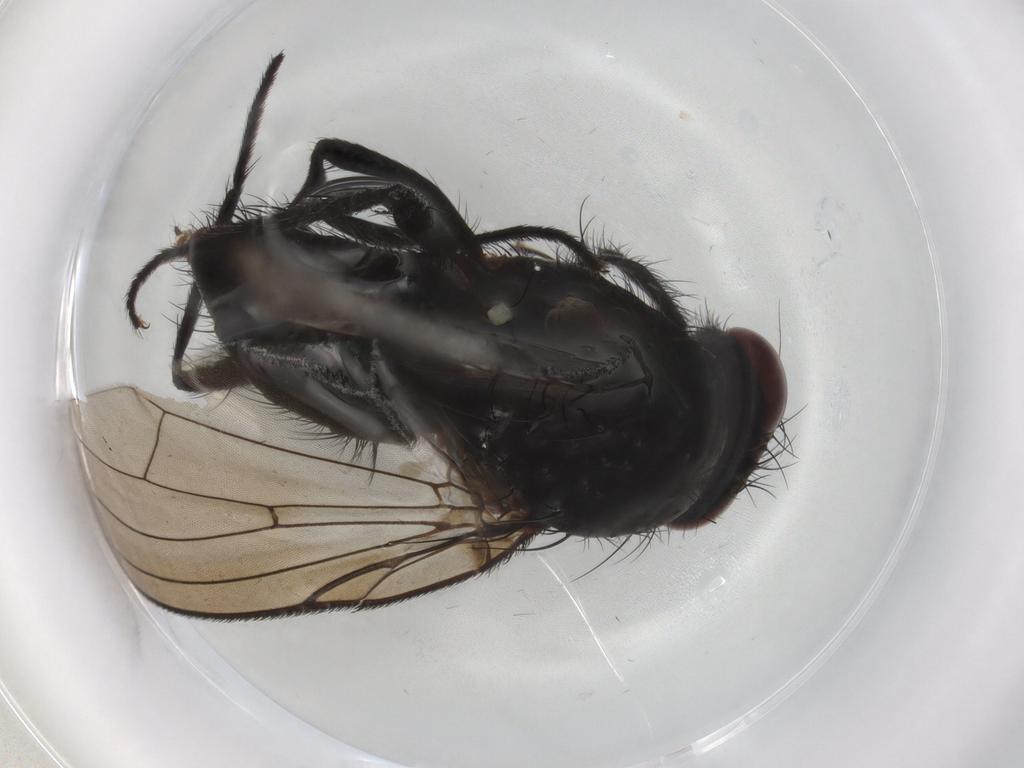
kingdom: Animalia
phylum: Arthropoda
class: Insecta
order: Diptera
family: Anthomyiidae
